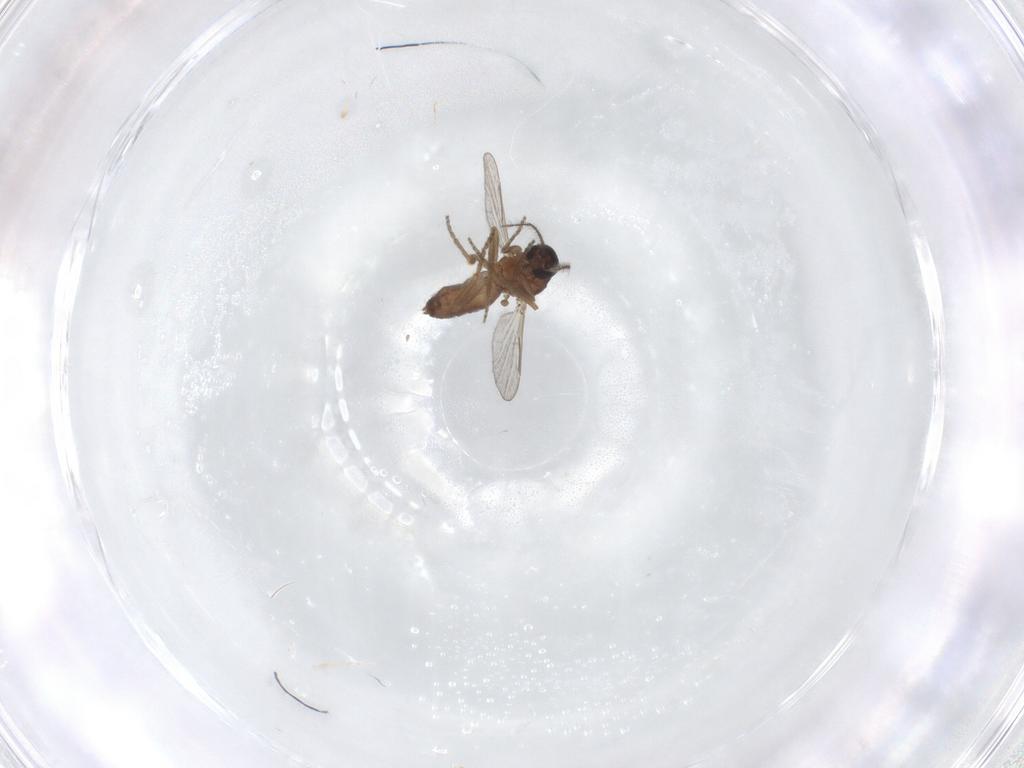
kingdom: Animalia
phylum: Arthropoda
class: Insecta
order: Diptera
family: Ceratopogonidae
